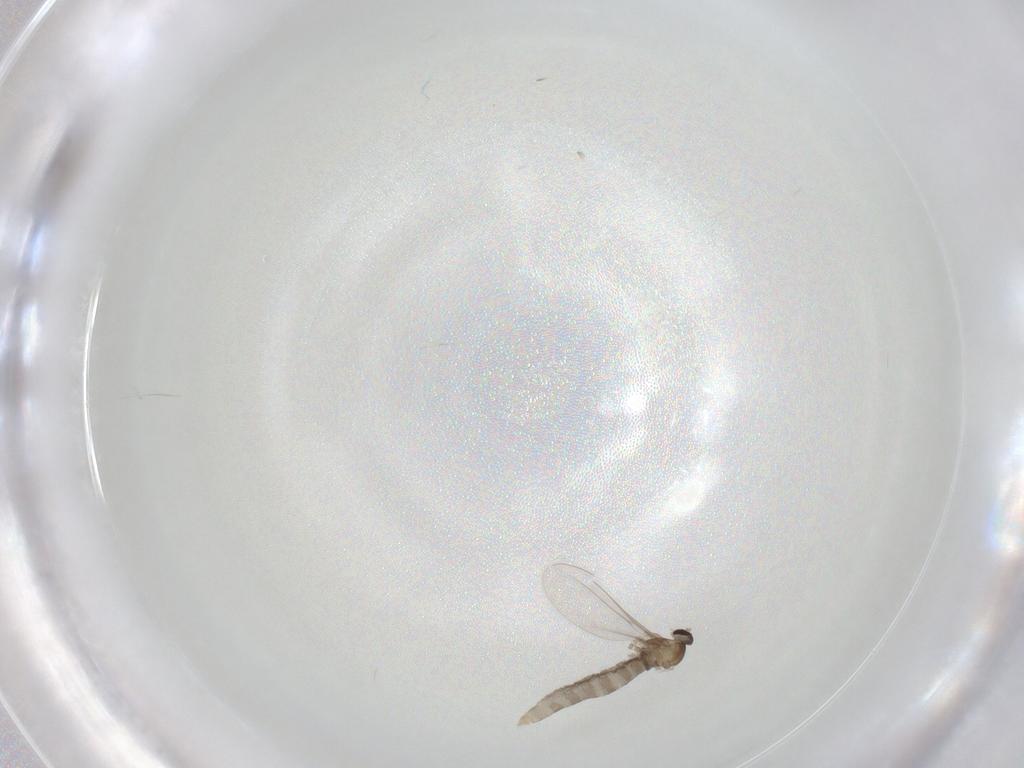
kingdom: Animalia
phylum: Arthropoda
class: Insecta
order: Diptera
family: Cecidomyiidae
